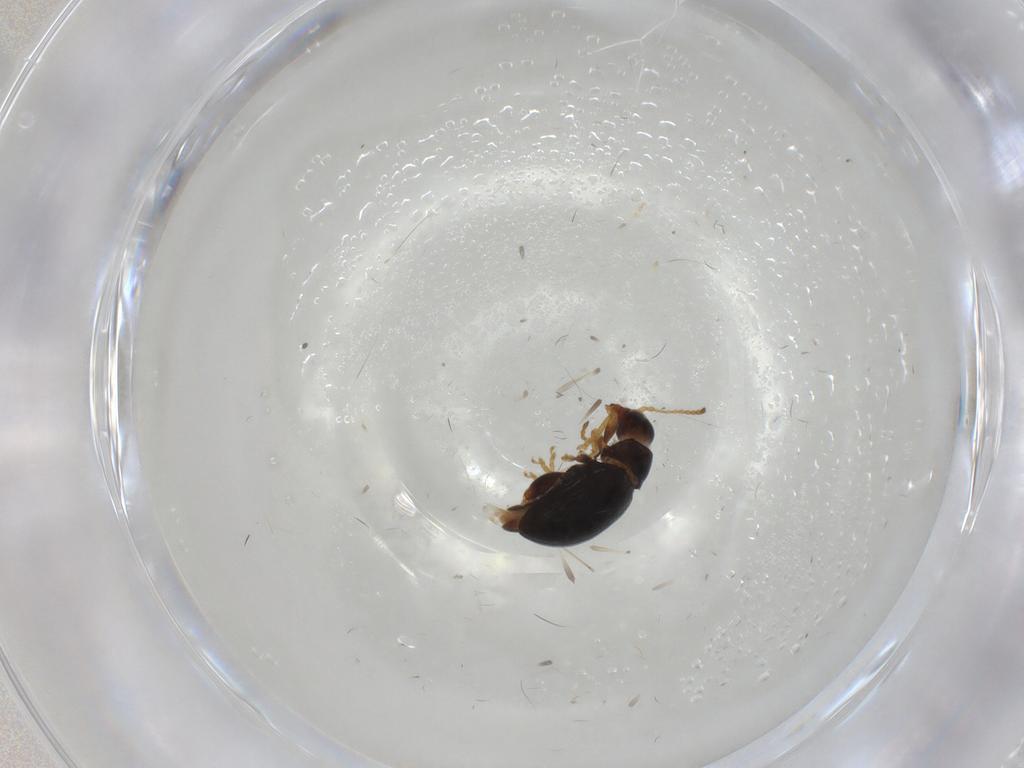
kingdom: Animalia
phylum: Arthropoda
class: Insecta
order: Coleoptera
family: Chrysomelidae
